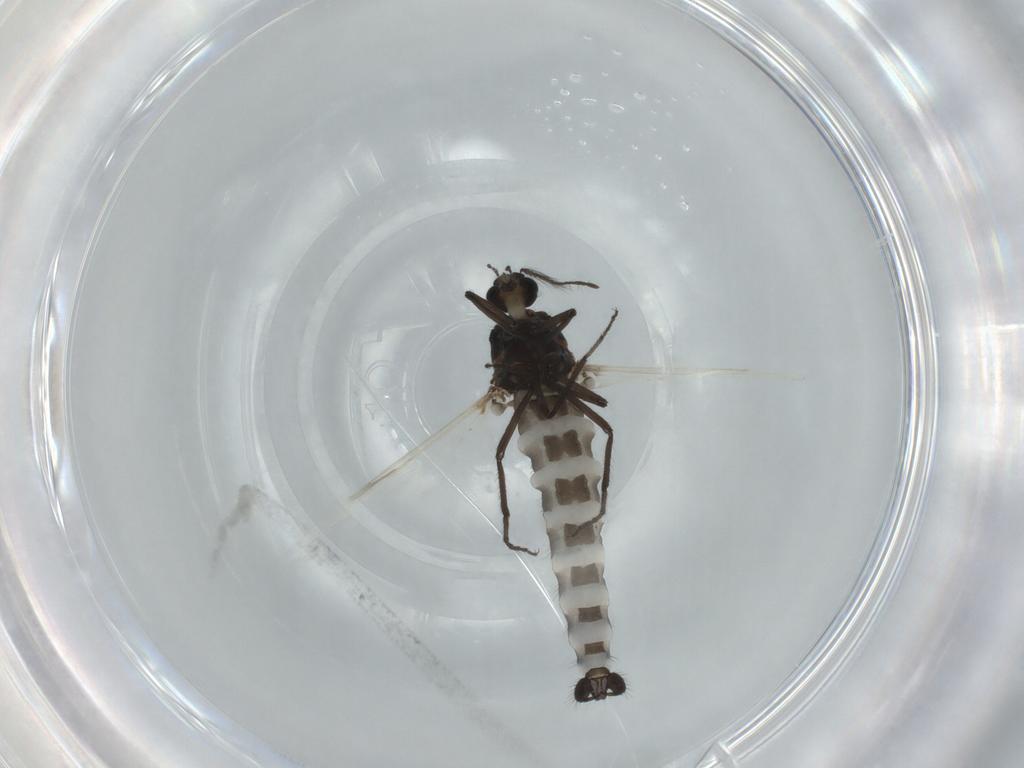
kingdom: Animalia
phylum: Arthropoda
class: Insecta
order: Diptera
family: Ceratopogonidae
